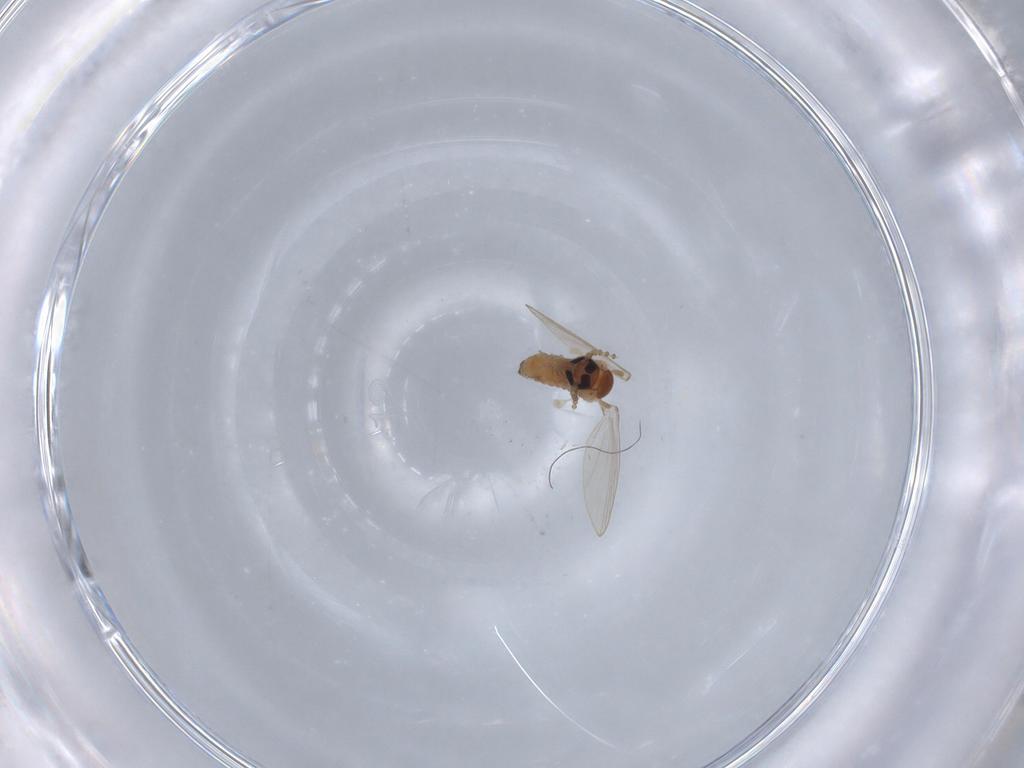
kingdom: Animalia
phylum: Arthropoda
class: Insecta
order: Diptera
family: Psychodidae
